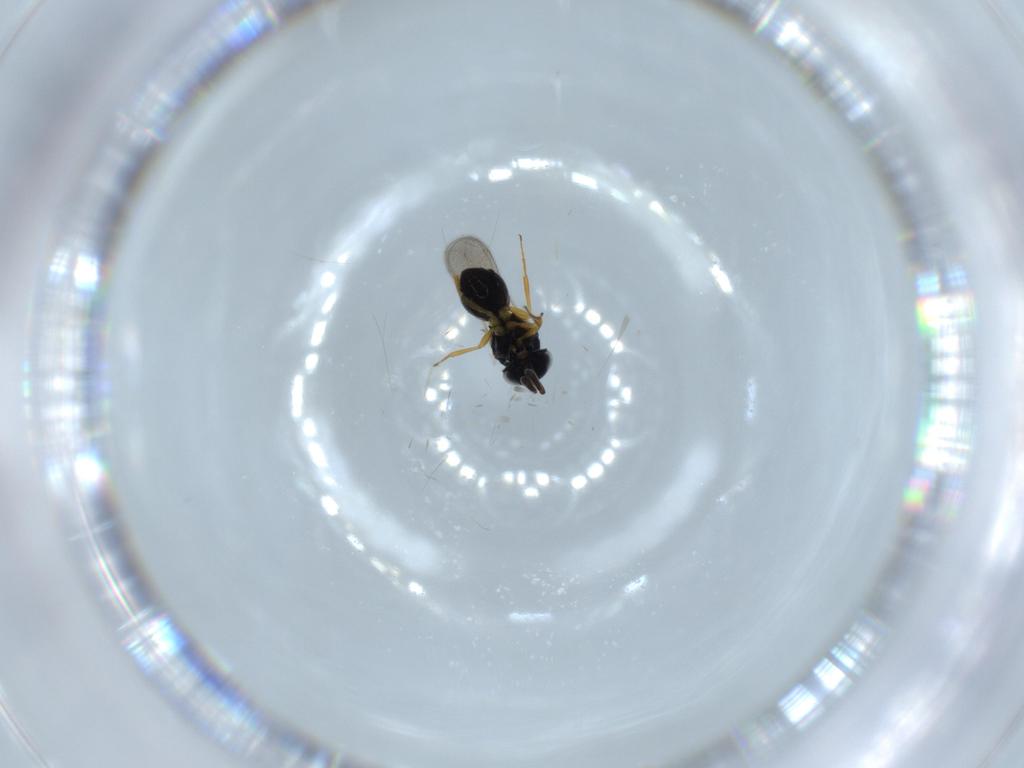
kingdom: Animalia
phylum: Arthropoda
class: Insecta
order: Hymenoptera
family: Scelionidae
